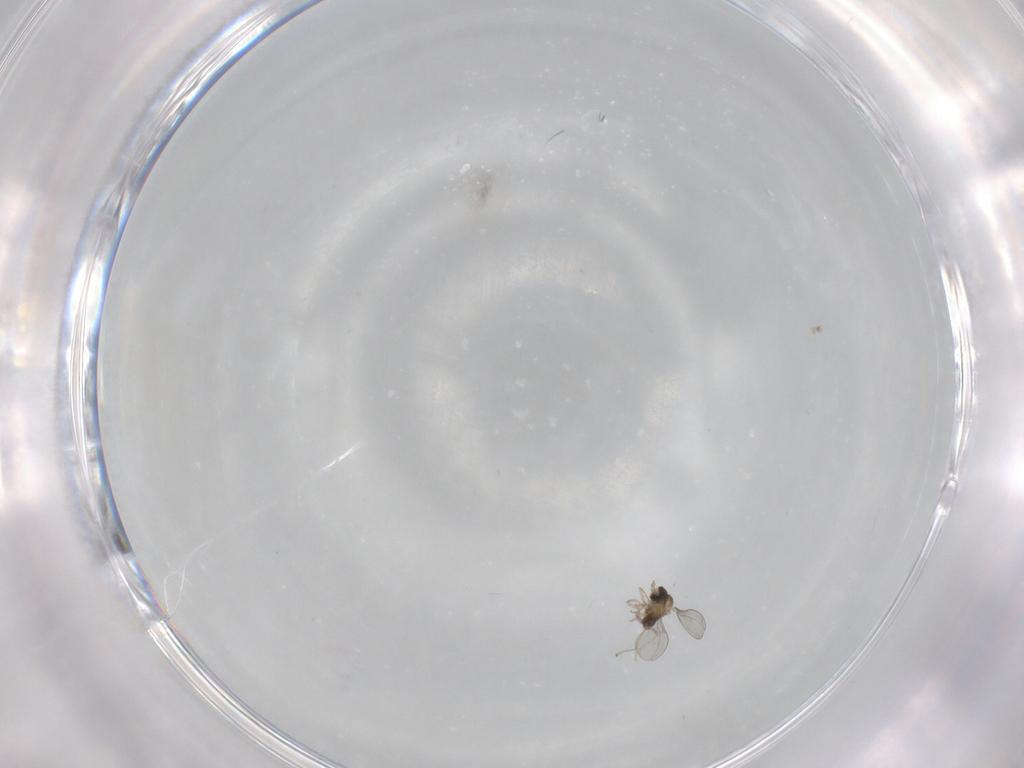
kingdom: Animalia
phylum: Arthropoda
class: Insecta
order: Diptera
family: Cecidomyiidae
